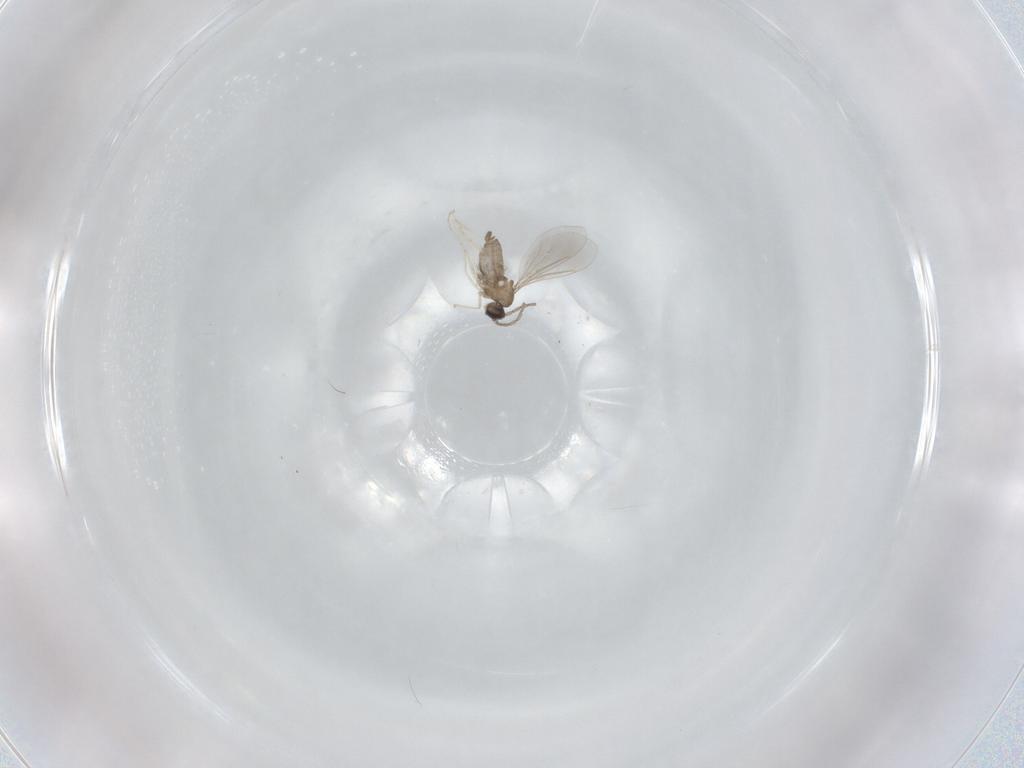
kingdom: Animalia
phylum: Arthropoda
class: Insecta
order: Diptera
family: Cecidomyiidae
